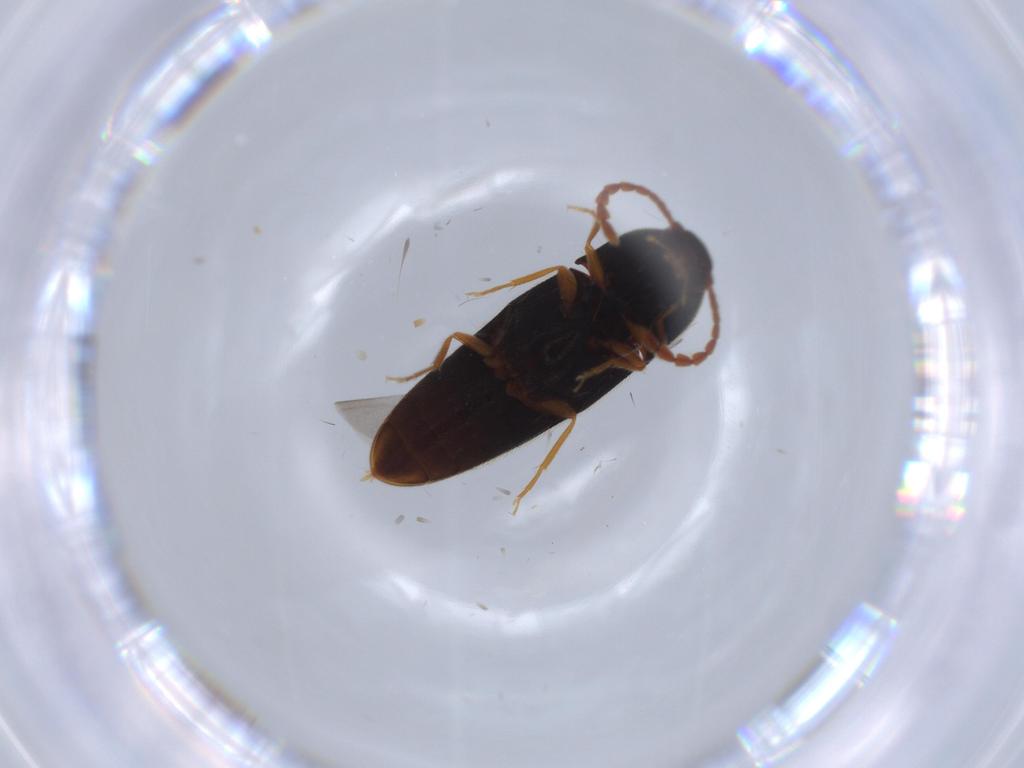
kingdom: Animalia
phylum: Arthropoda
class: Insecta
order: Coleoptera
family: Elateridae
